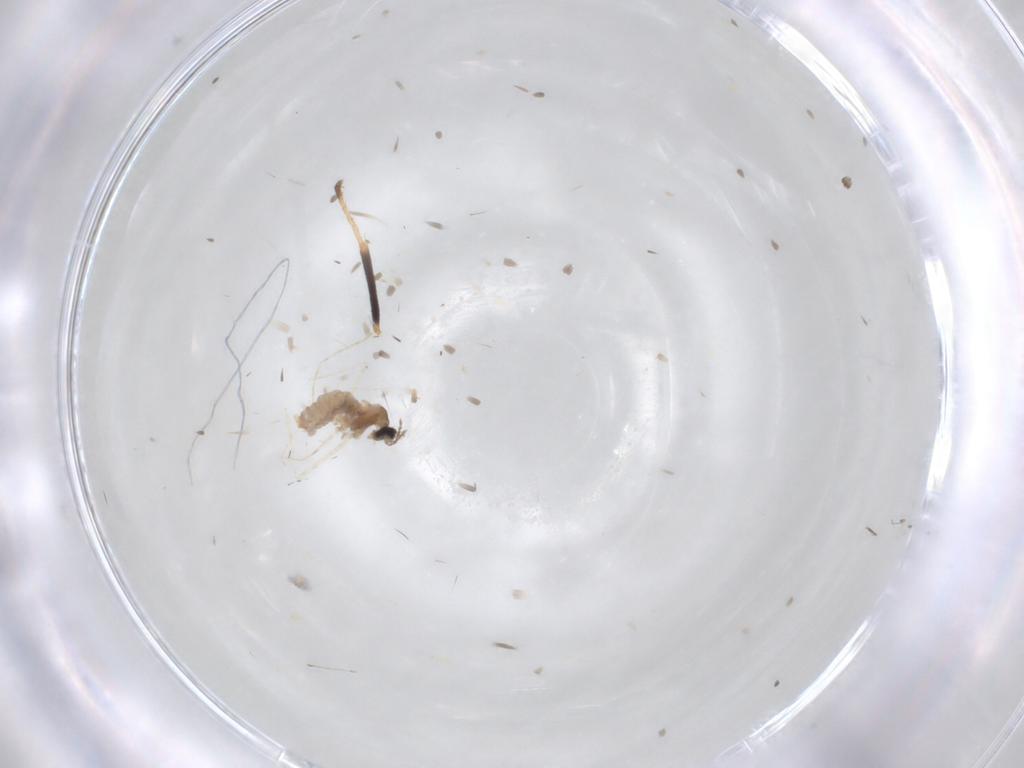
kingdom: Animalia
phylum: Arthropoda
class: Insecta
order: Diptera
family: Cecidomyiidae
